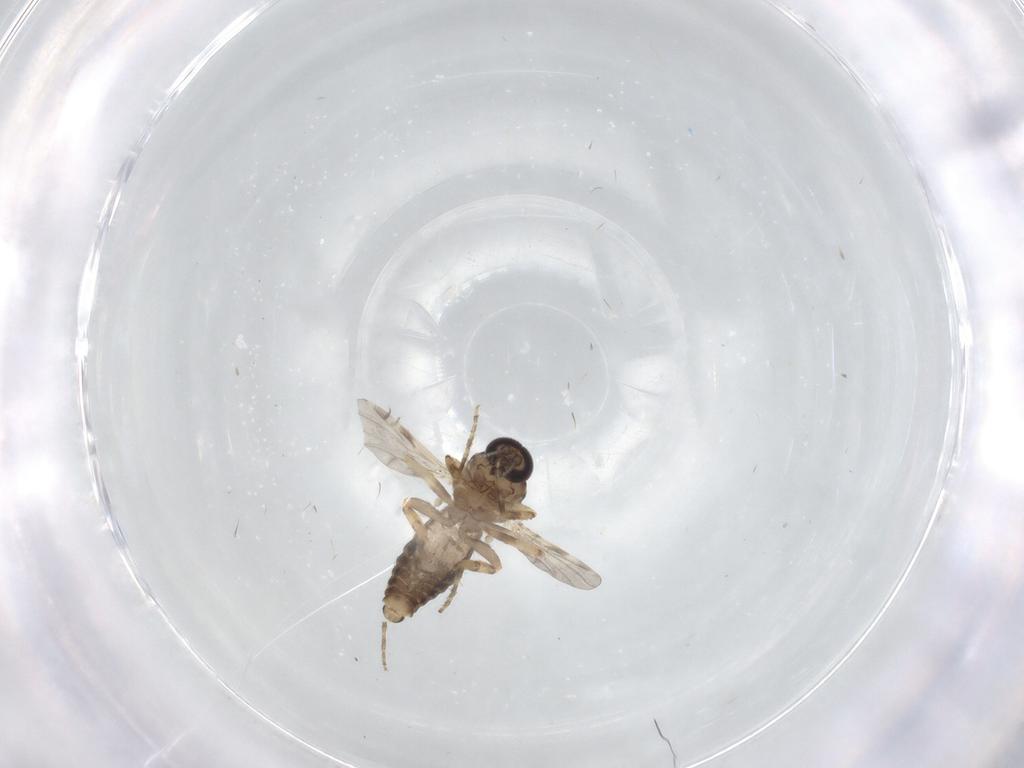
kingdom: Animalia
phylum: Arthropoda
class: Insecta
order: Diptera
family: Ceratopogonidae
